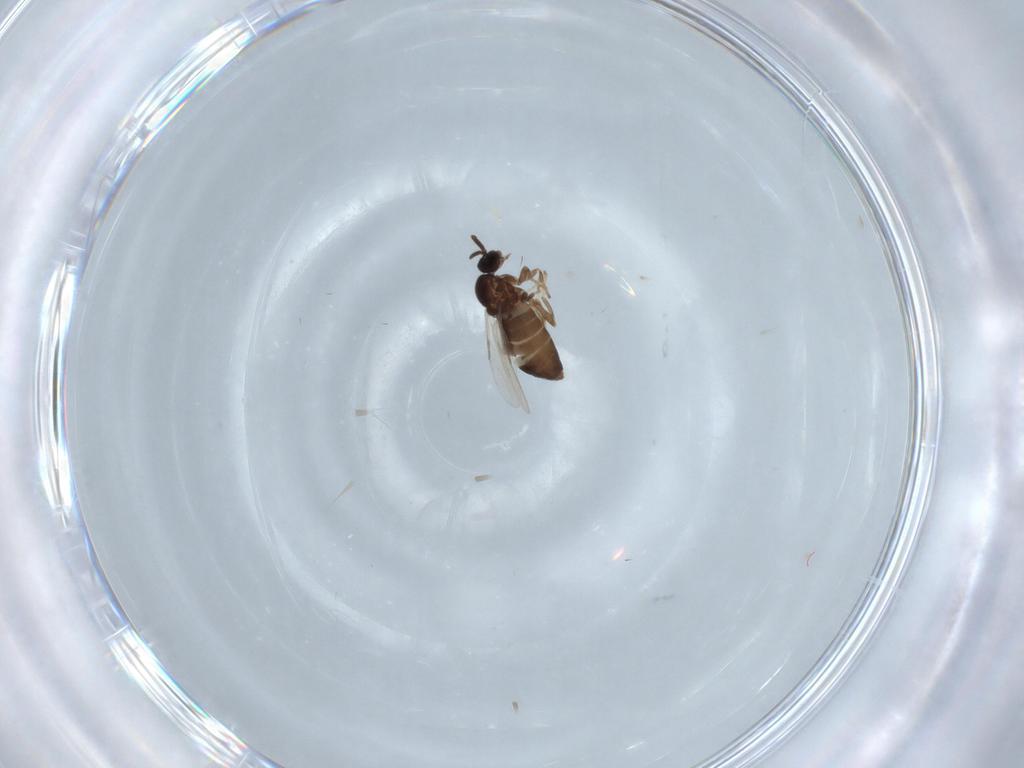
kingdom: Animalia
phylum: Arthropoda
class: Insecta
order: Diptera
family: Scatopsidae
